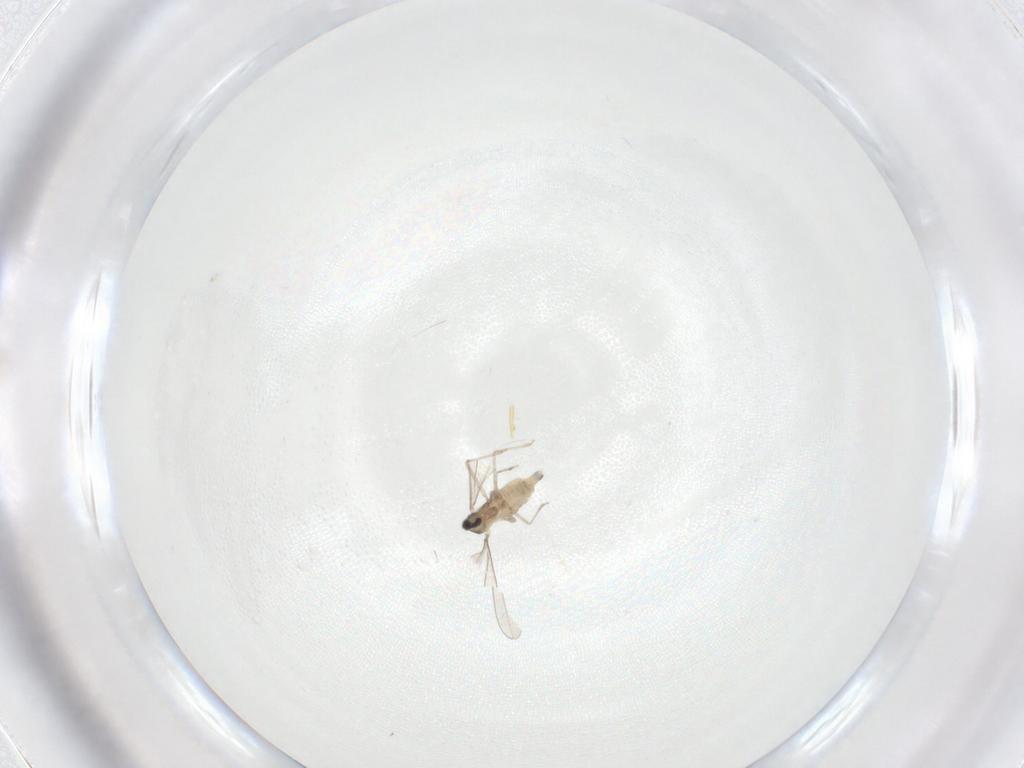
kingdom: Animalia
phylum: Arthropoda
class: Insecta
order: Diptera
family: Cecidomyiidae
